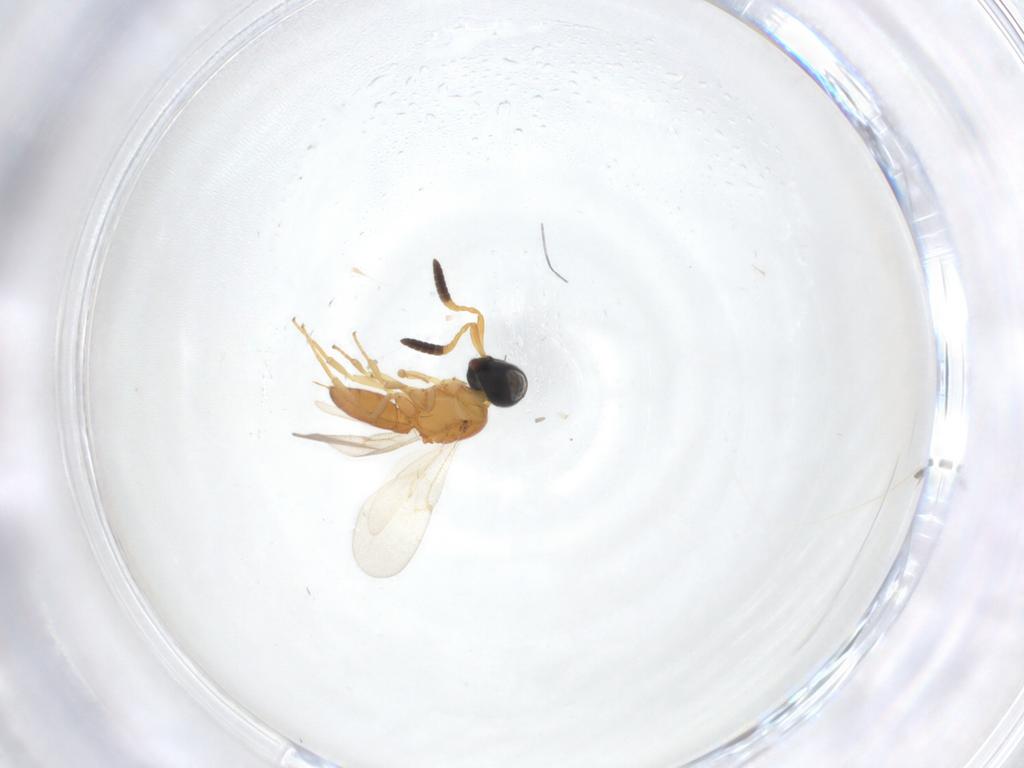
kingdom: Animalia
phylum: Arthropoda
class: Insecta
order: Hymenoptera
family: Scelionidae
